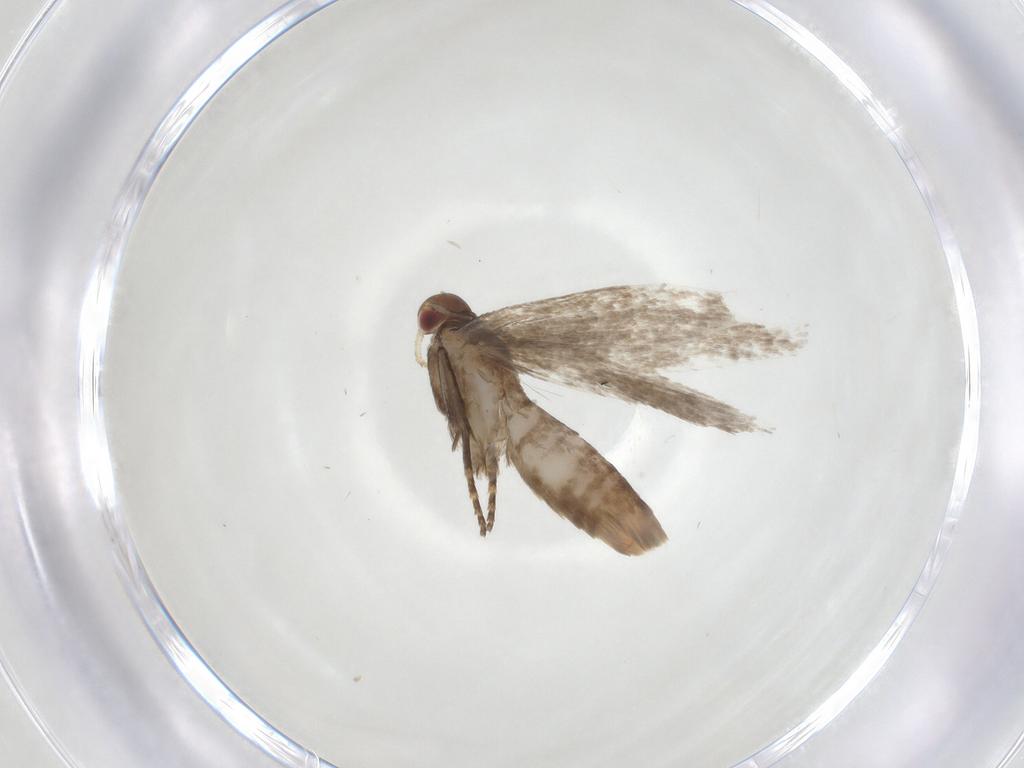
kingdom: Animalia
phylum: Arthropoda
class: Insecta
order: Lepidoptera
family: Gelechiidae
